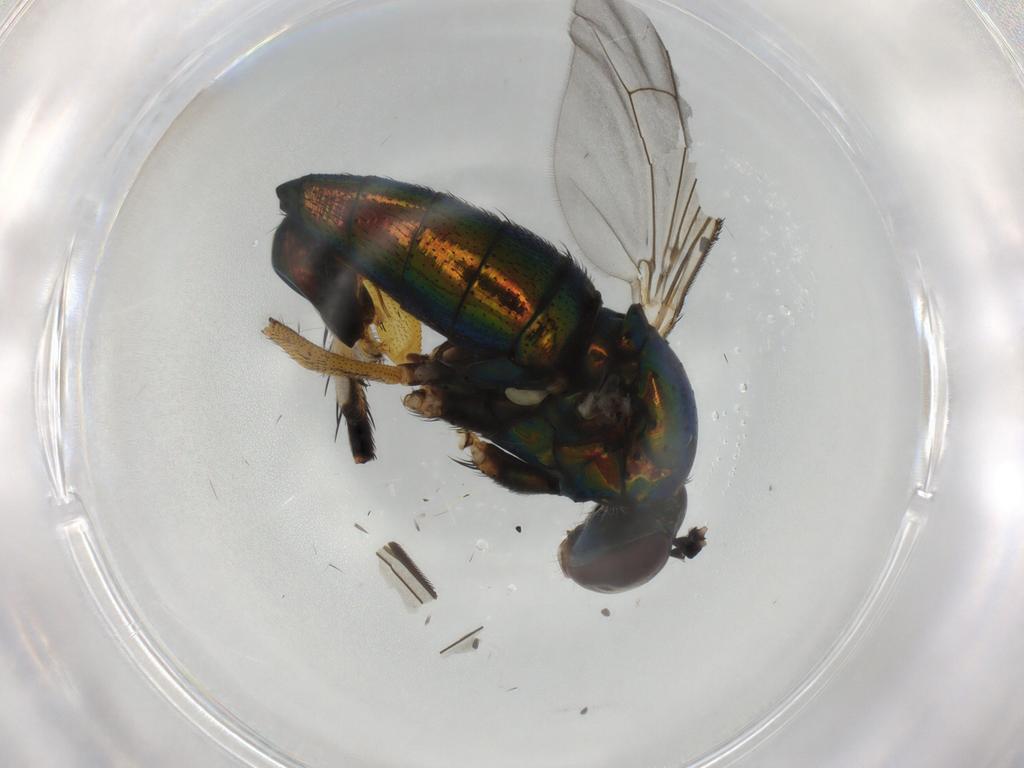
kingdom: Animalia
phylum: Arthropoda
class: Insecta
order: Diptera
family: Dolichopodidae
